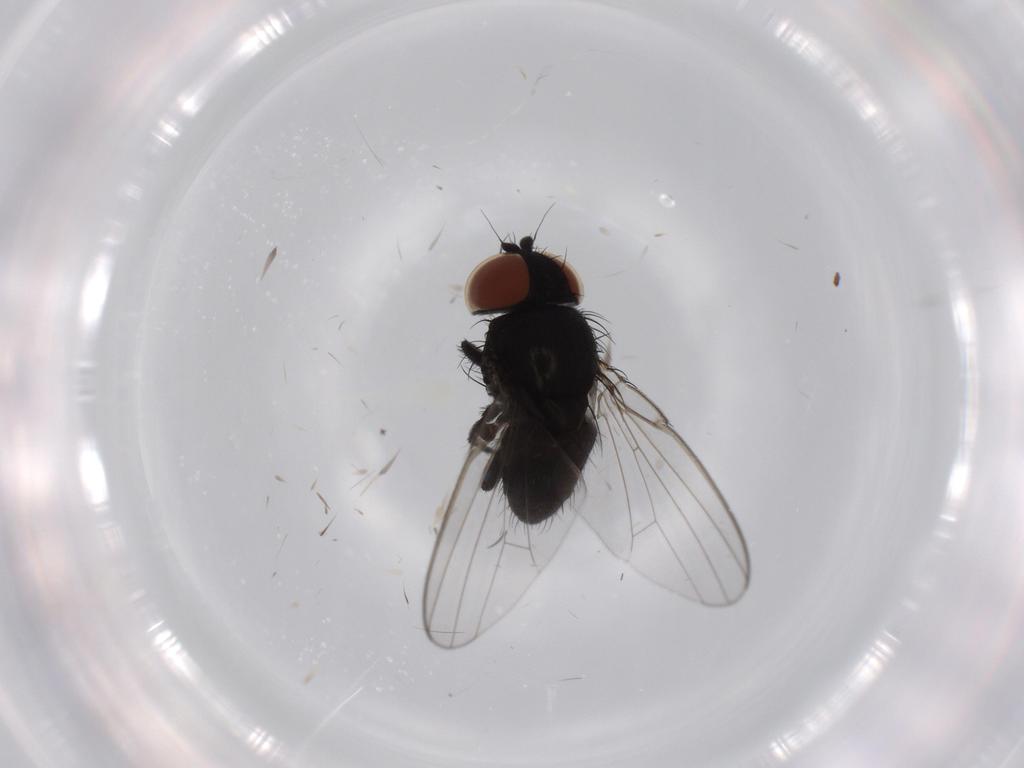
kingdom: Animalia
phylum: Arthropoda
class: Insecta
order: Diptera
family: Milichiidae
